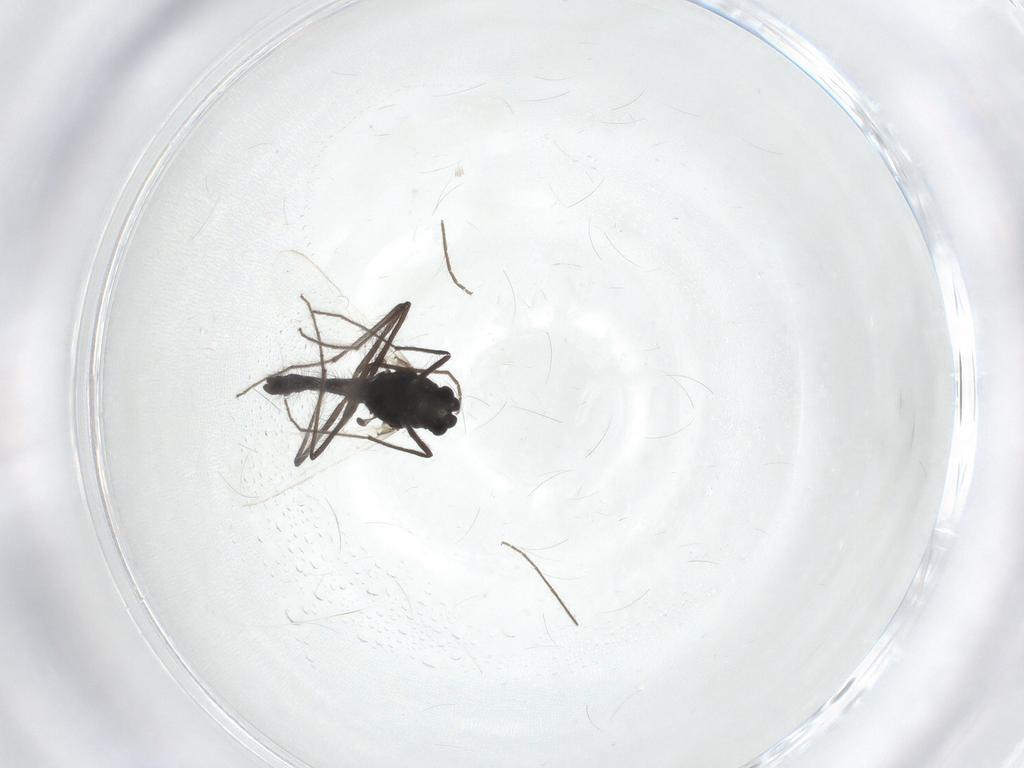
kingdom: Animalia
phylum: Arthropoda
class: Insecta
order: Diptera
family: Chironomidae
